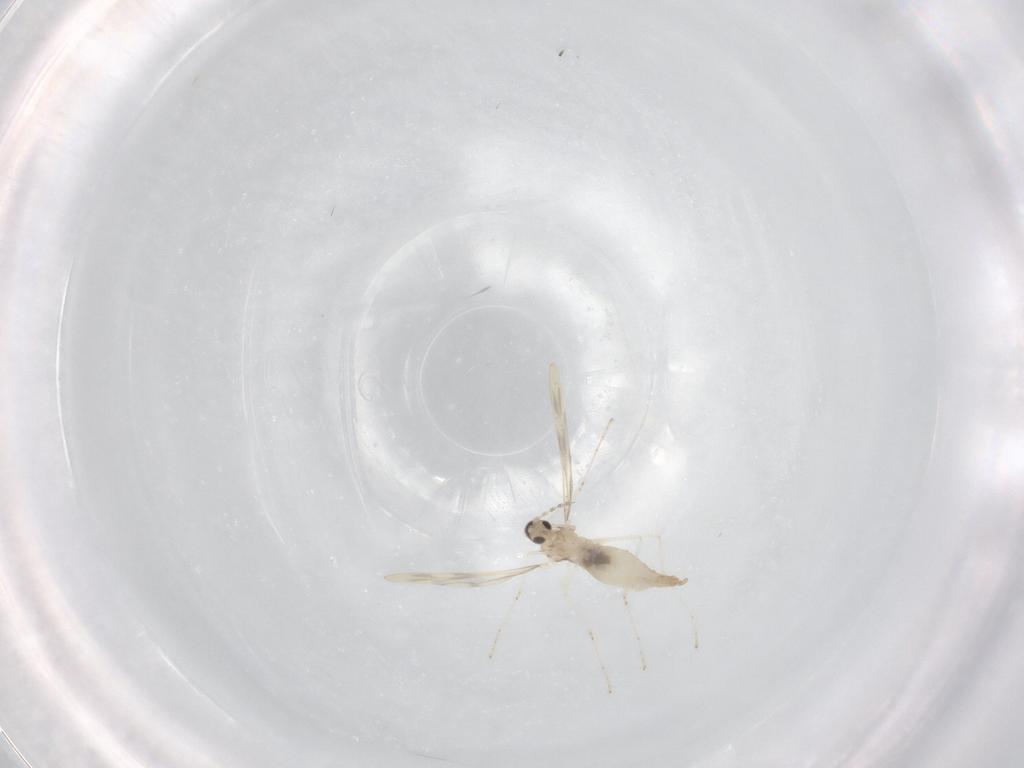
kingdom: Animalia
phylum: Arthropoda
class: Insecta
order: Diptera
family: Cecidomyiidae
